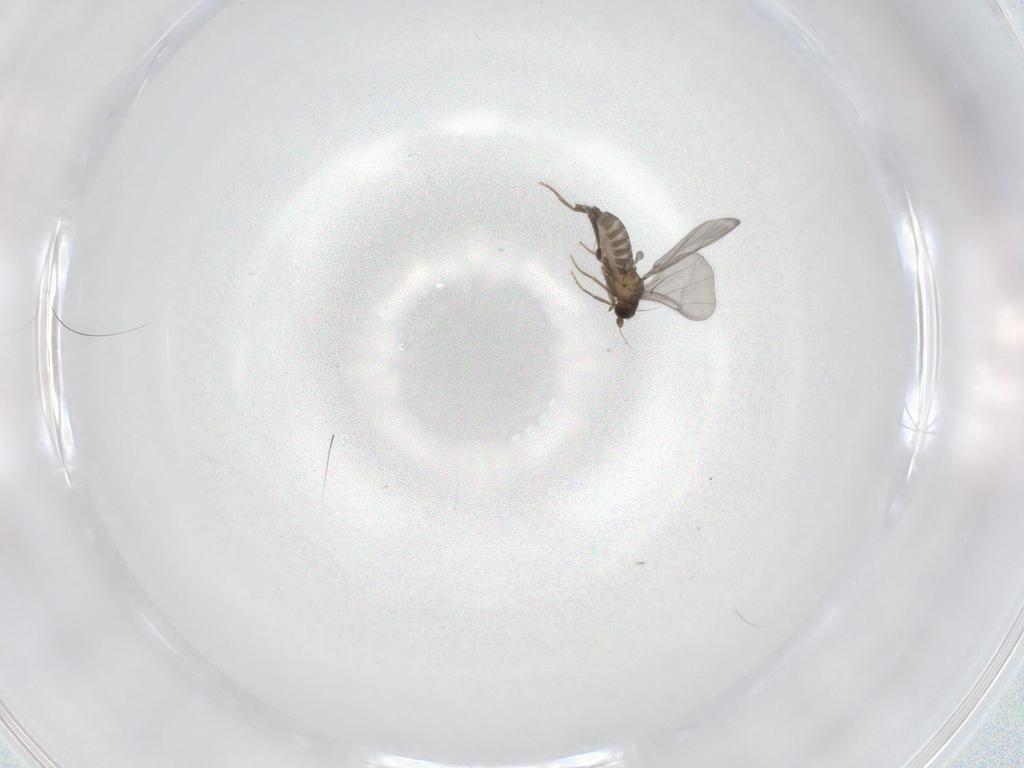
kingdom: Animalia
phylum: Arthropoda
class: Insecta
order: Diptera
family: Phoridae
